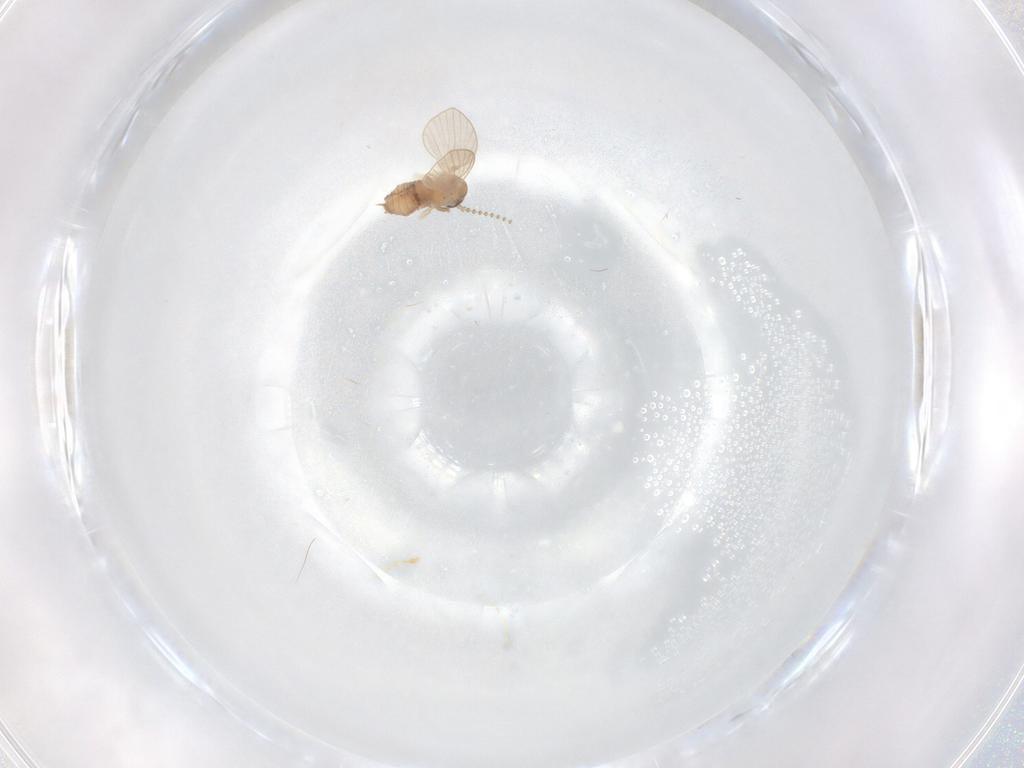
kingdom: Animalia
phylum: Arthropoda
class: Insecta
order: Diptera
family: Psychodidae
